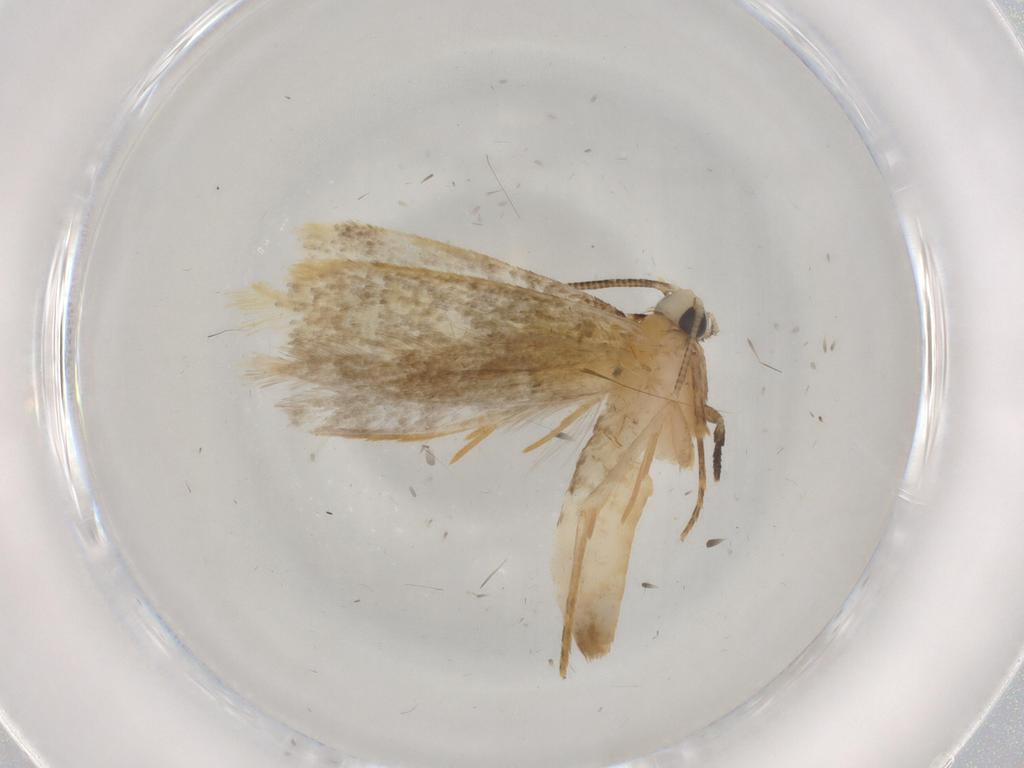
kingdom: Animalia
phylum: Arthropoda
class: Insecta
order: Lepidoptera
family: Tineidae
